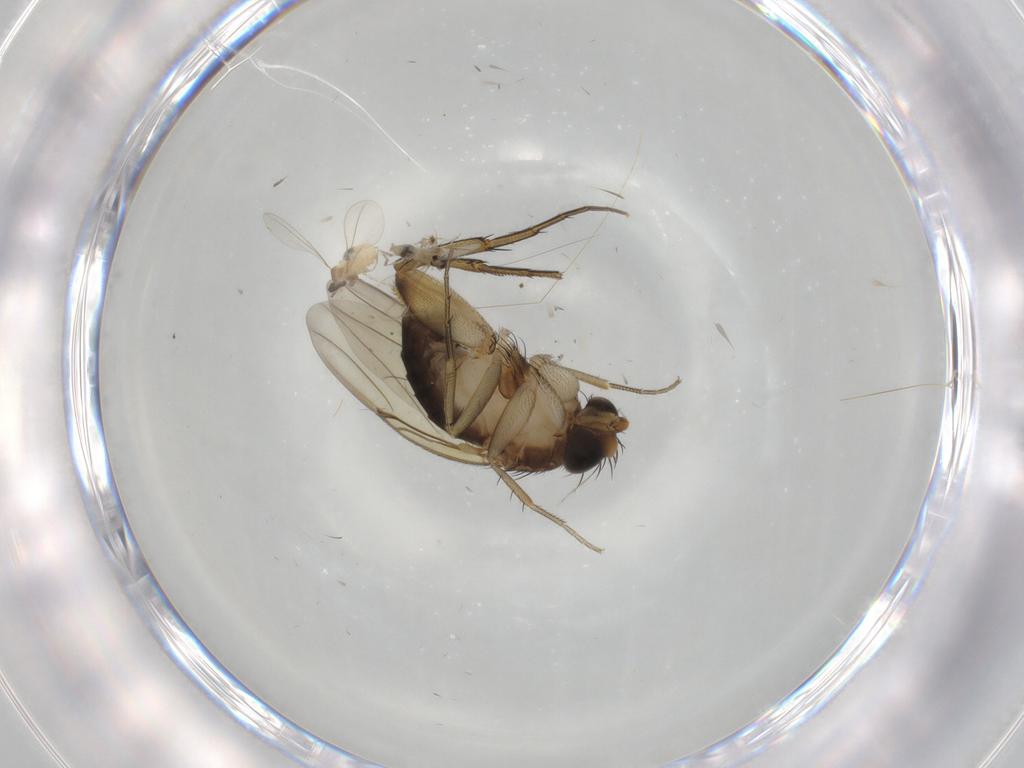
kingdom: Animalia
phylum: Arthropoda
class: Insecta
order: Diptera
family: Phoridae
